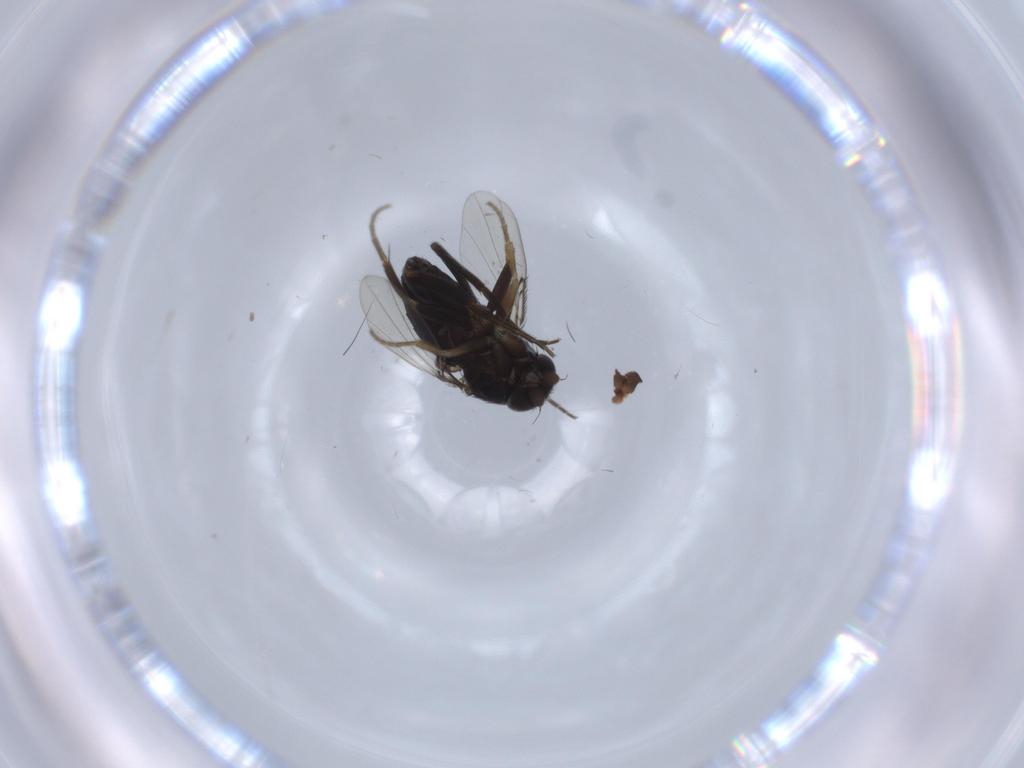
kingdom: Animalia
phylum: Arthropoda
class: Insecta
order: Diptera
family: Phoridae
